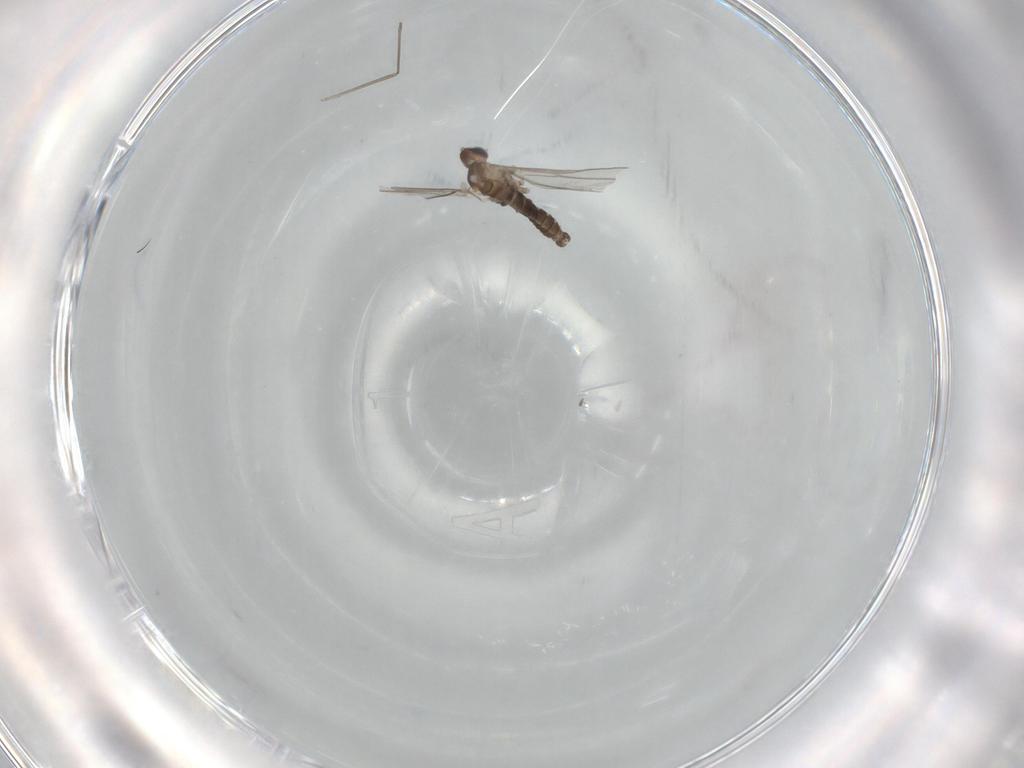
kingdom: Animalia
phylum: Arthropoda
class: Insecta
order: Diptera
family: Cecidomyiidae
